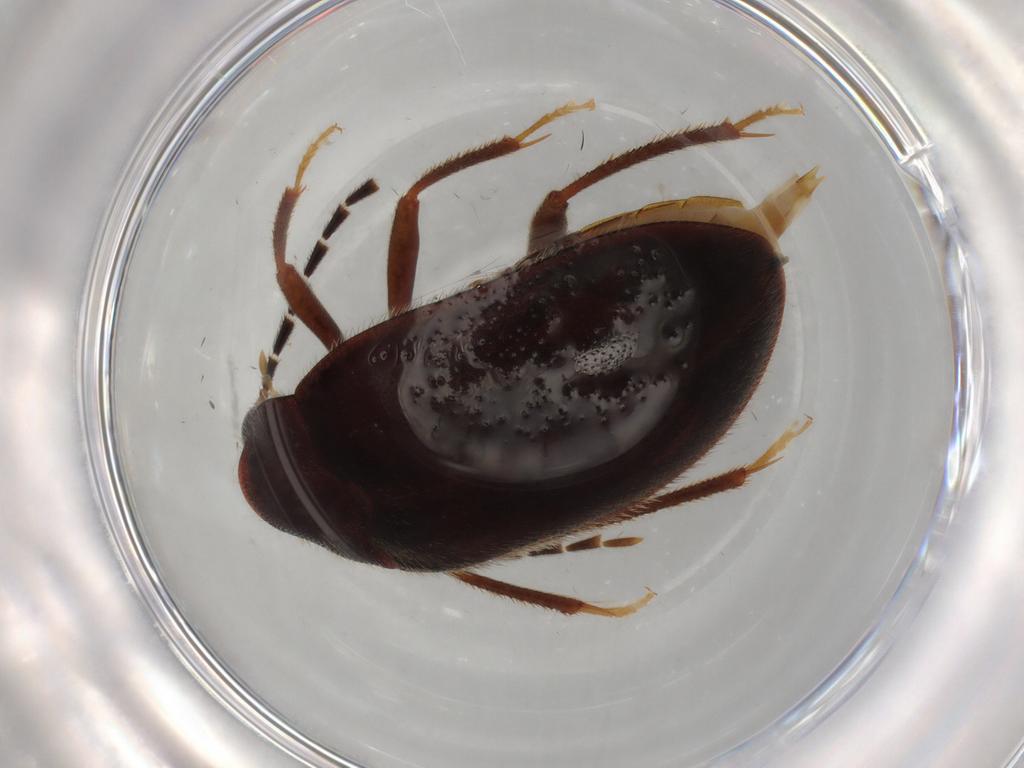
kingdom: Animalia
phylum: Arthropoda
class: Insecta
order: Coleoptera
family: Ptilodactylidae
